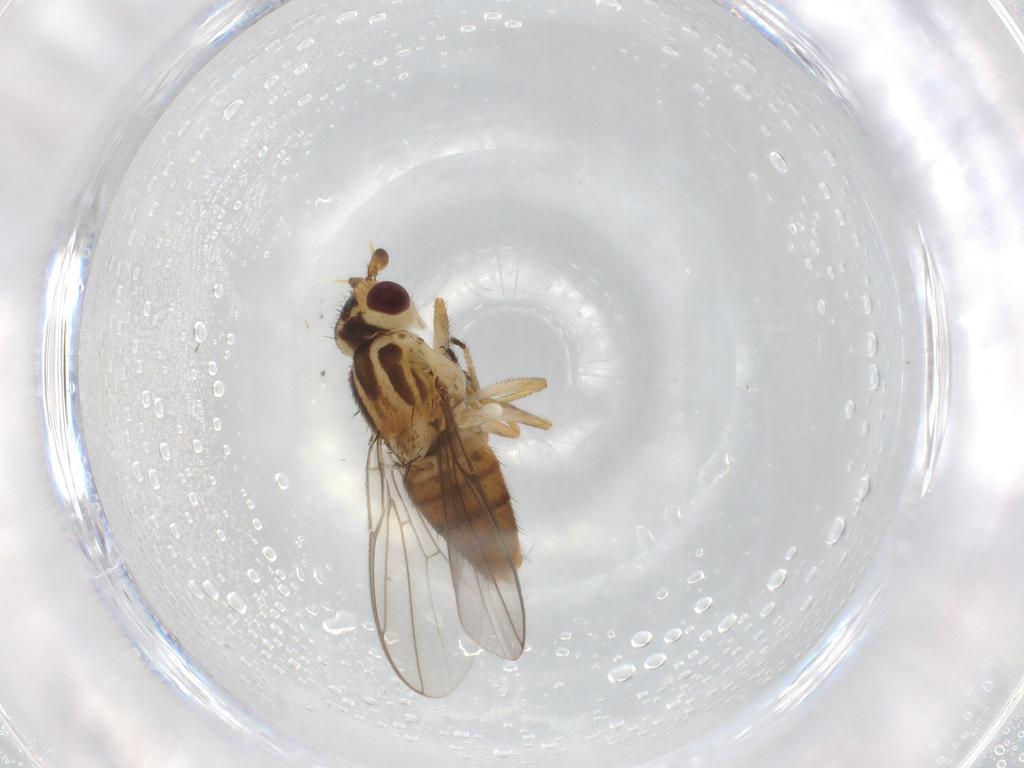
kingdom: Animalia
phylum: Arthropoda
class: Insecta
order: Diptera
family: Chloropidae
